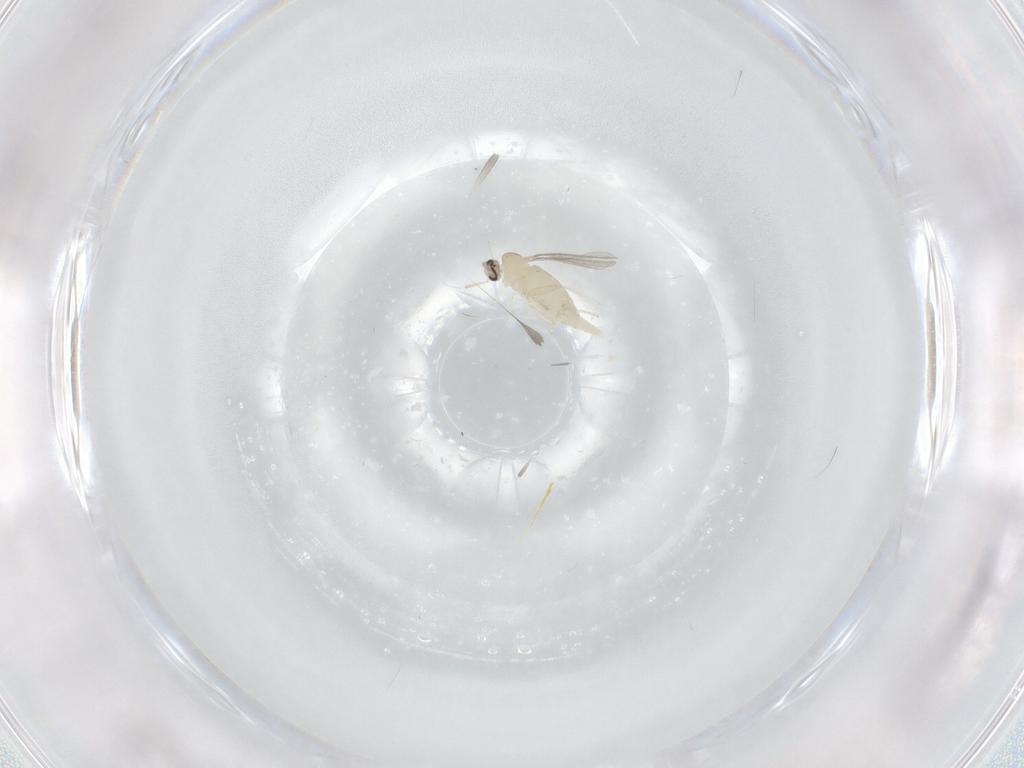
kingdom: Animalia
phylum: Arthropoda
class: Insecta
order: Diptera
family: Cecidomyiidae
